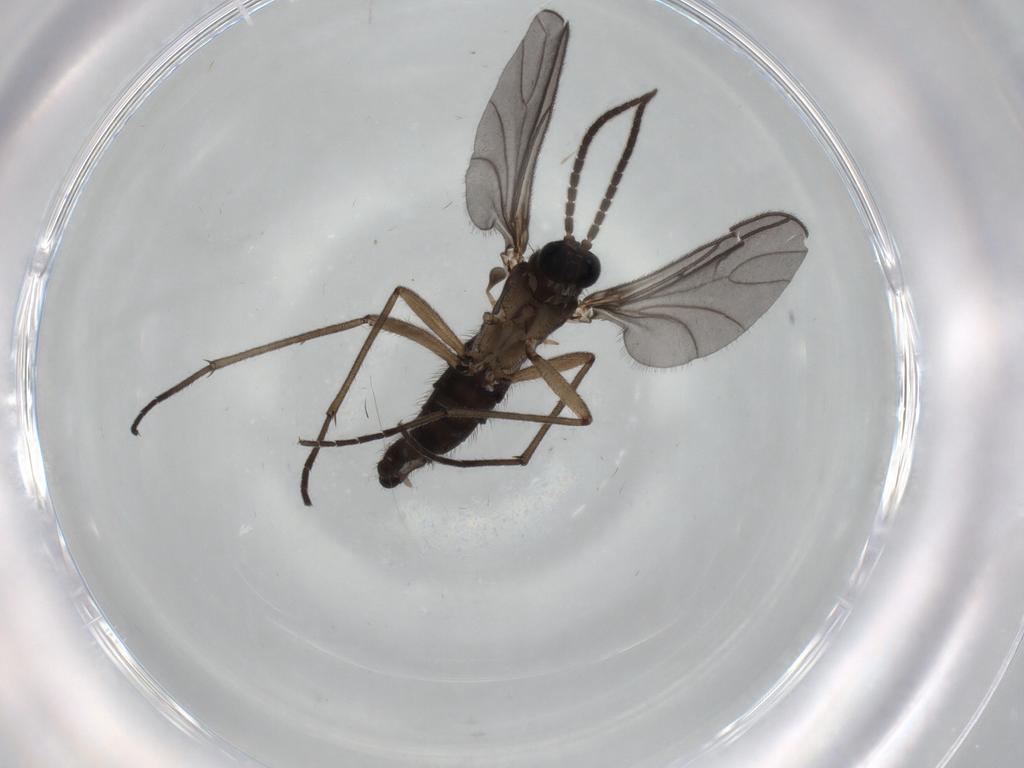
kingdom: Animalia
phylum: Arthropoda
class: Insecta
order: Diptera
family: Sciaridae
